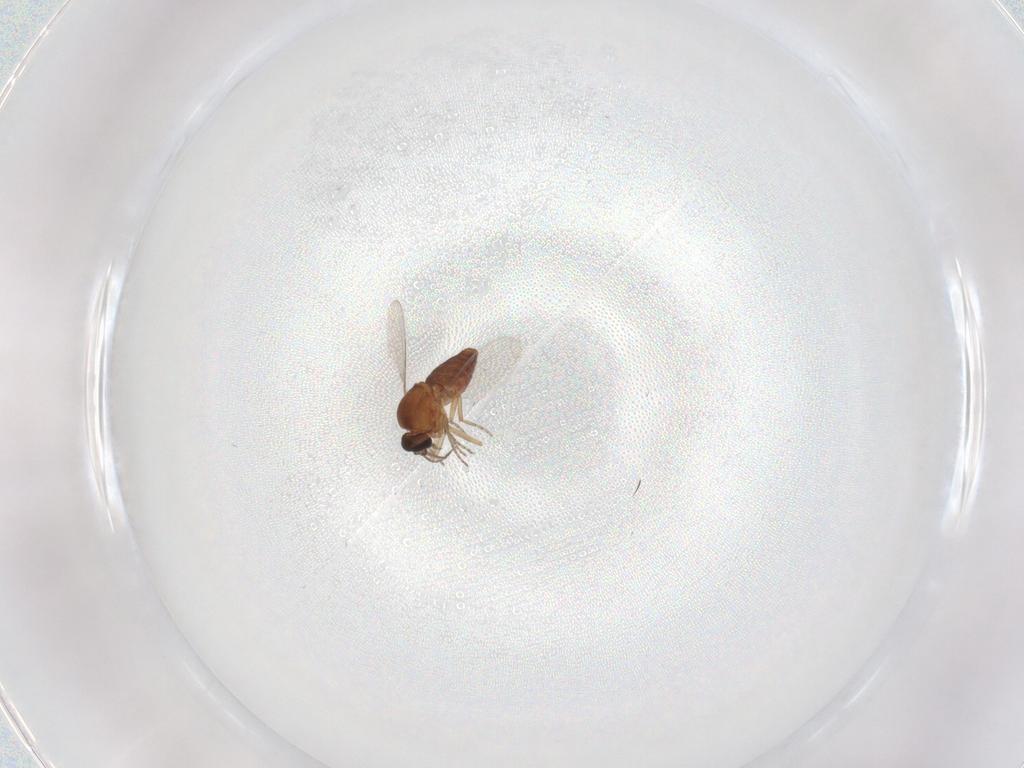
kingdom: Animalia
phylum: Arthropoda
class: Insecta
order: Diptera
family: Ceratopogonidae
